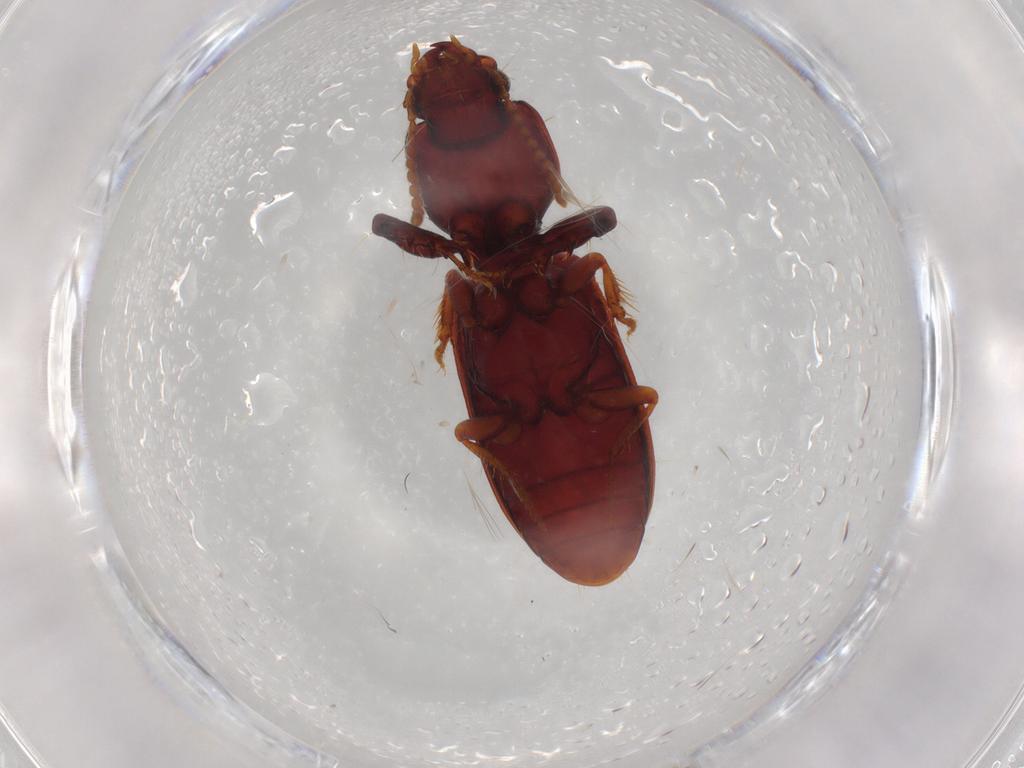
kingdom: Animalia
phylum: Arthropoda
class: Insecta
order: Coleoptera
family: Carabidae
